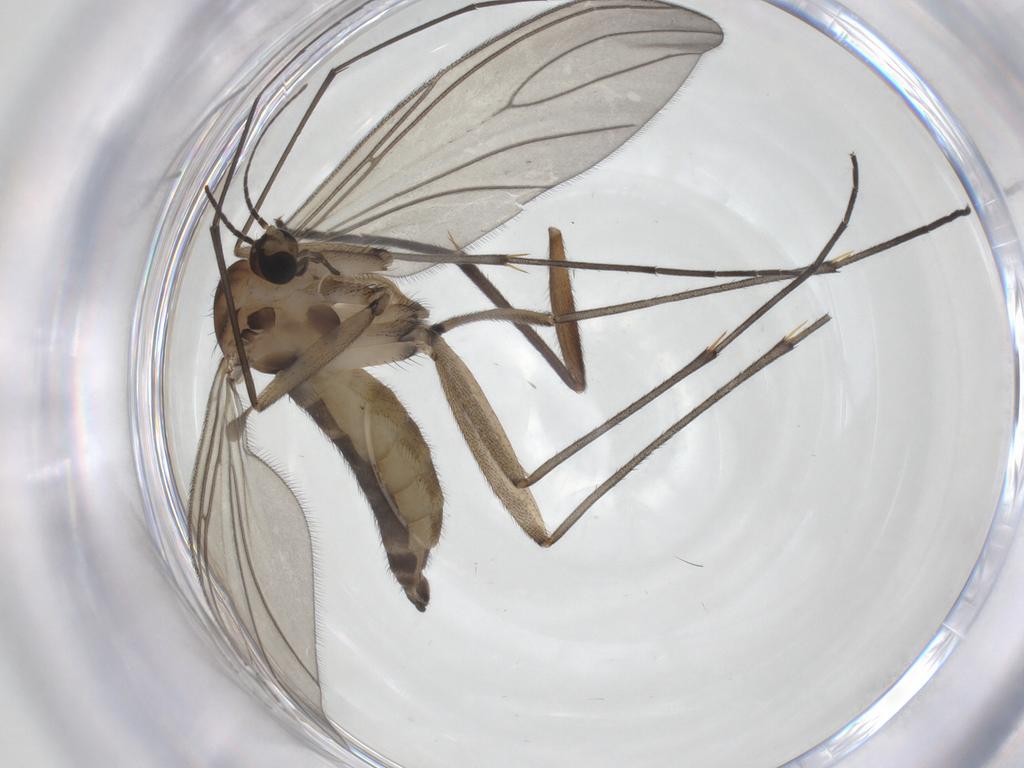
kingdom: Animalia
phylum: Arthropoda
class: Insecta
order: Diptera
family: Sciaridae
